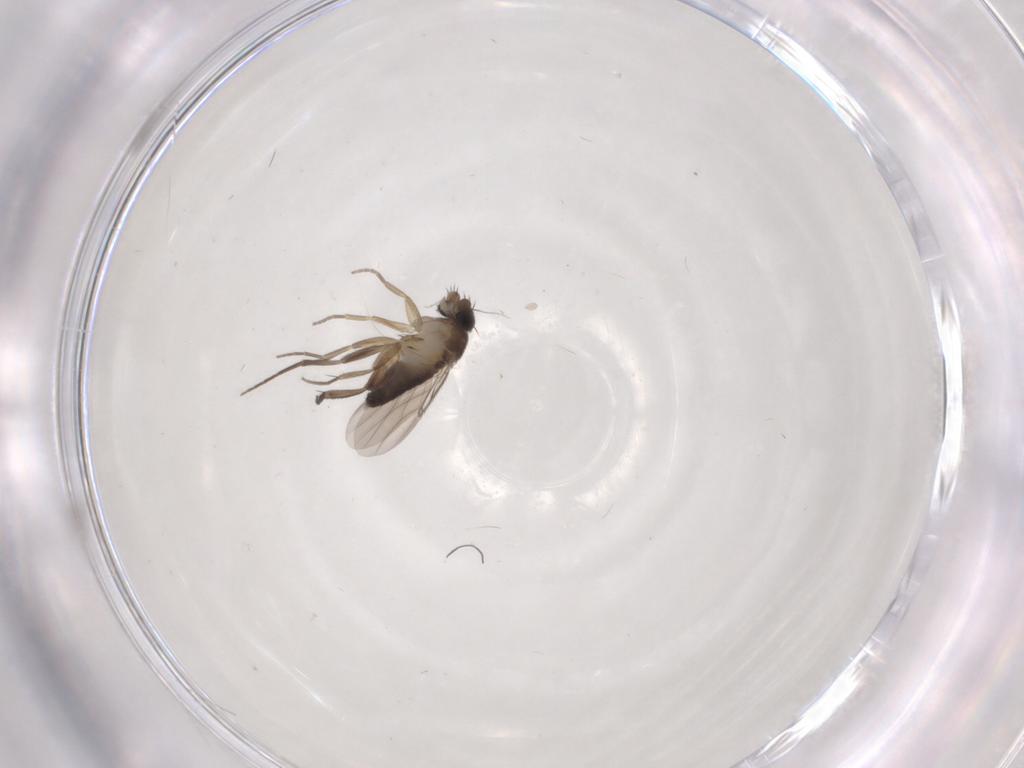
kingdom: Animalia
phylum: Arthropoda
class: Insecta
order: Diptera
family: Phoridae
